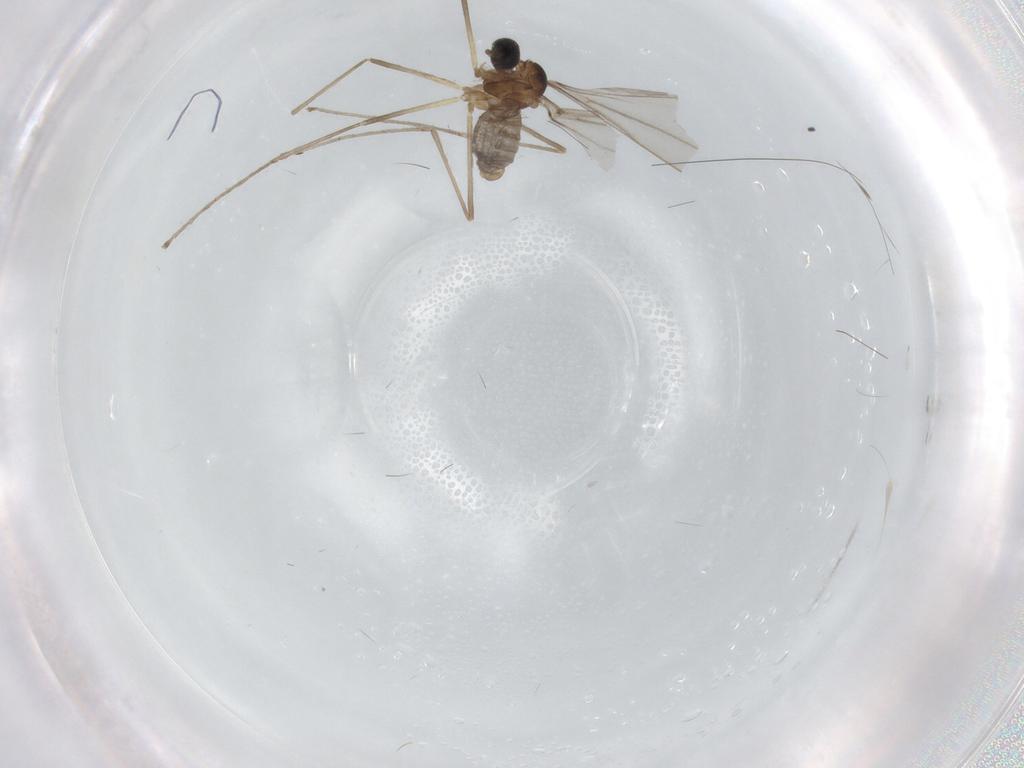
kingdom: Animalia
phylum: Arthropoda
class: Insecta
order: Diptera
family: Cecidomyiidae
